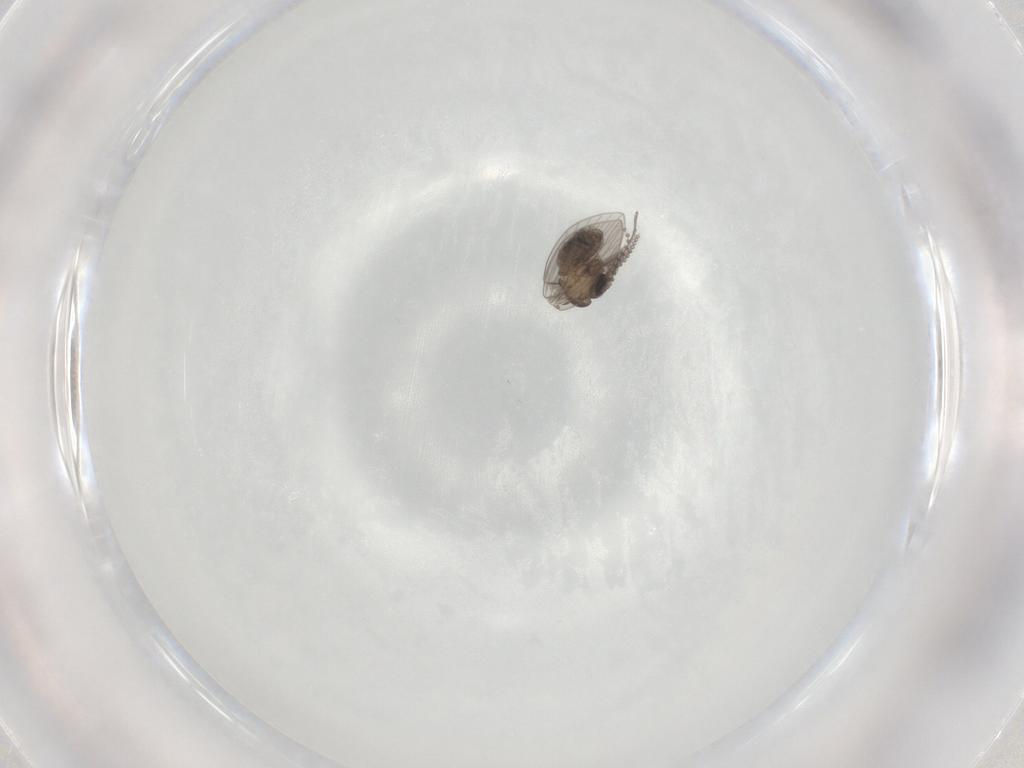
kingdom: Animalia
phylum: Arthropoda
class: Insecta
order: Diptera
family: Psychodidae
